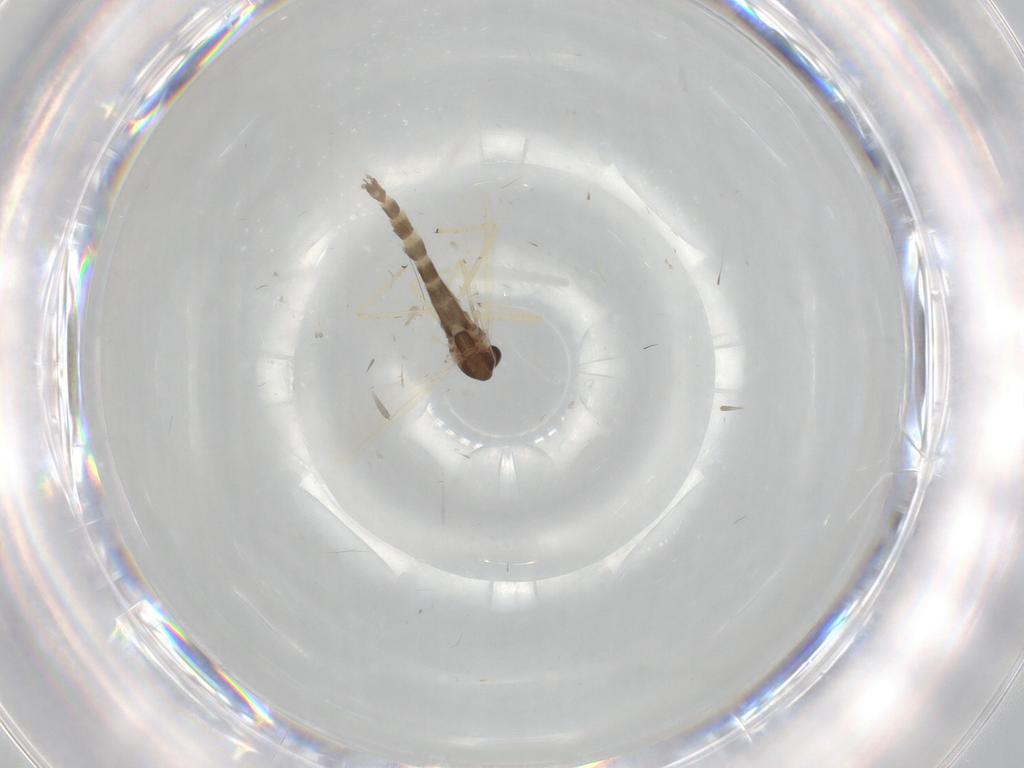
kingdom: Animalia
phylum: Arthropoda
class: Insecta
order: Diptera
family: Chironomidae
